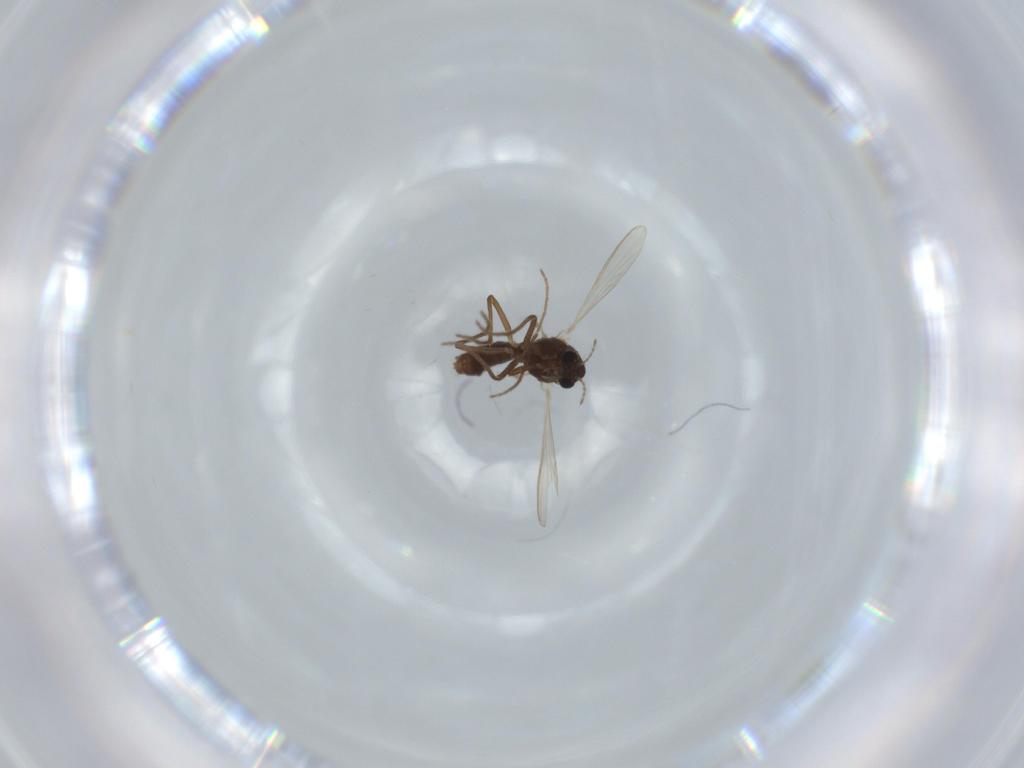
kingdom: Animalia
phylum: Arthropoda
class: Insecta
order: Diptera
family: Chironomidae
